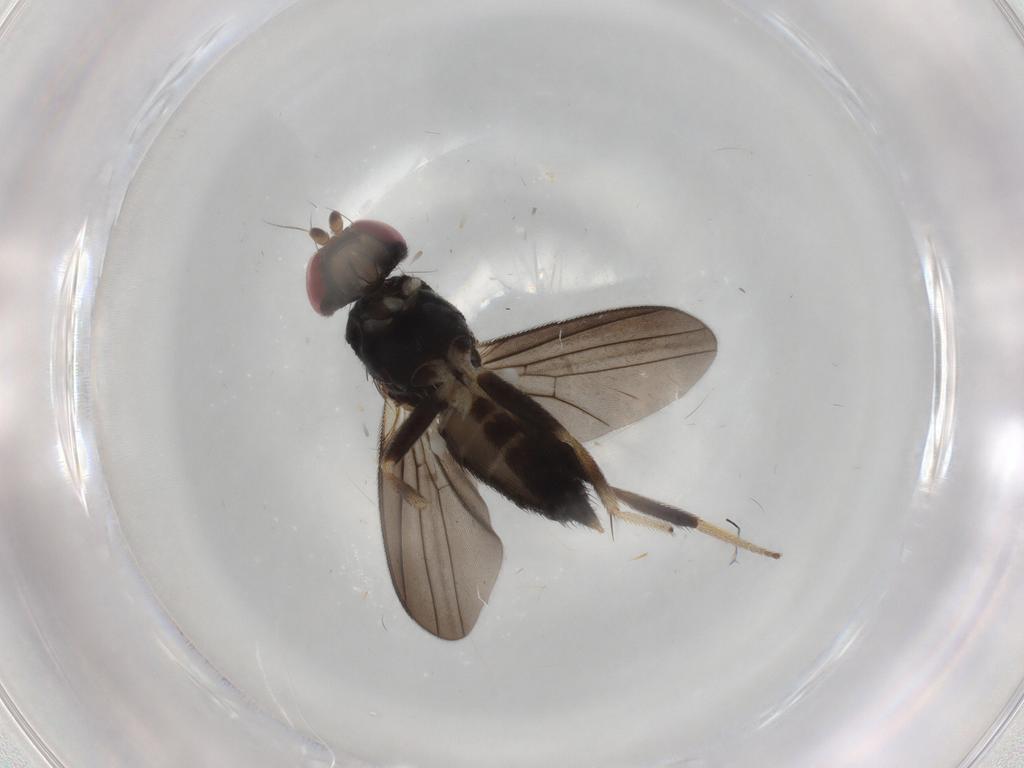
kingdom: Animalia
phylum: Arthropoda
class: Insecta
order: Diptera
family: Clusiidae
